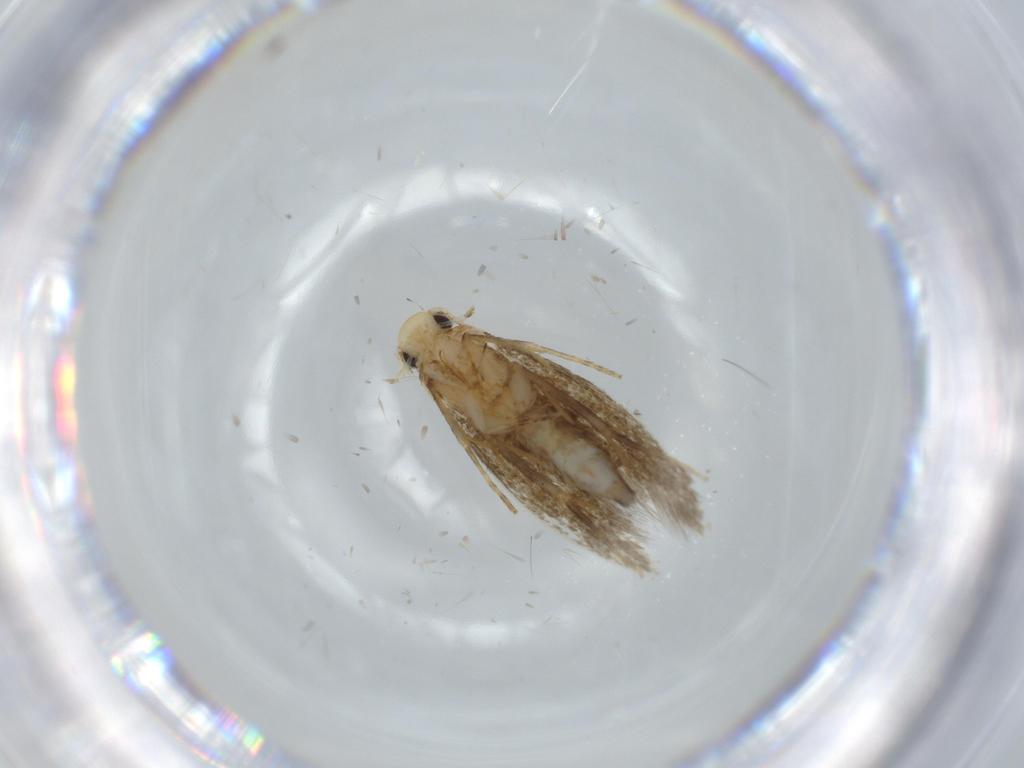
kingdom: Animalia
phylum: Arthropoda
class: Insecta
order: Lepidoptera
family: Tineidae
